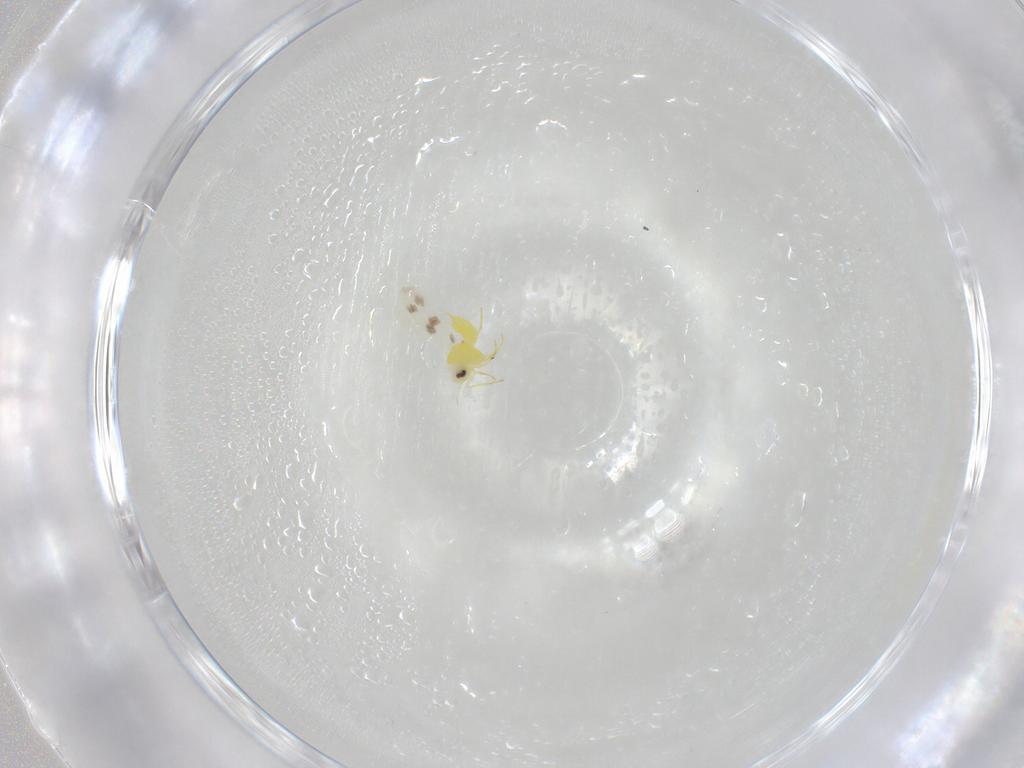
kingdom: Animalia
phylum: Arthropoda
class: Insecta
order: Hemiptera
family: Aleyrodidae
